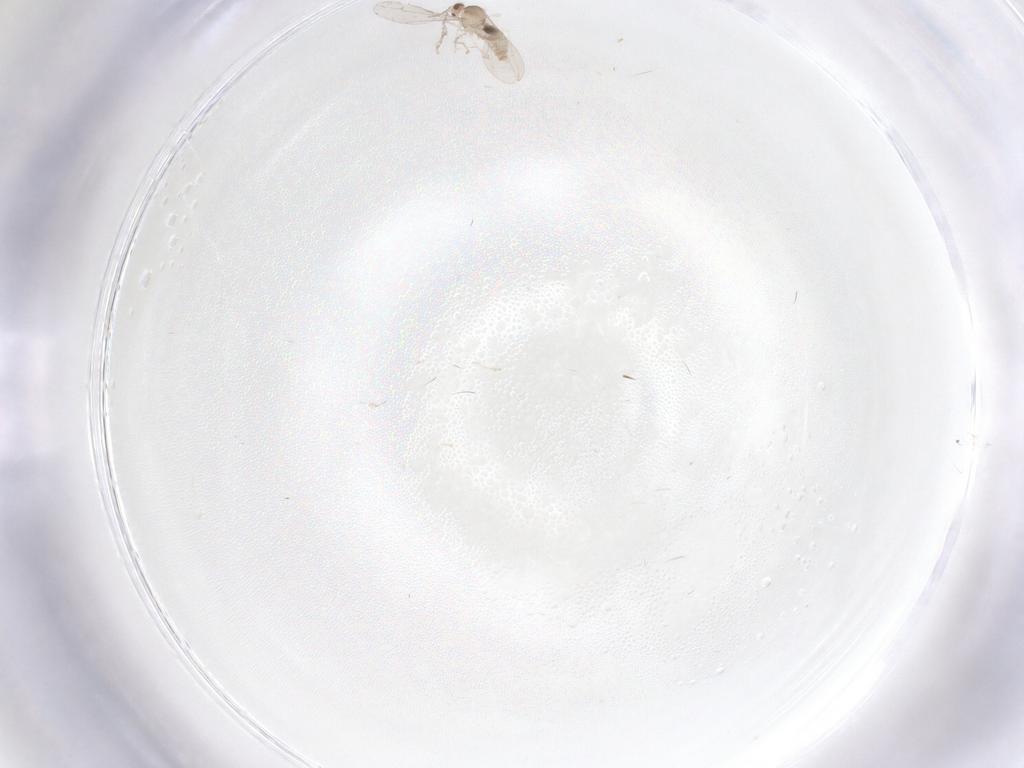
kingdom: Animalia
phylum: Arthropoda
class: Insecta
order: Diptera
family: Cecidomyiidae
